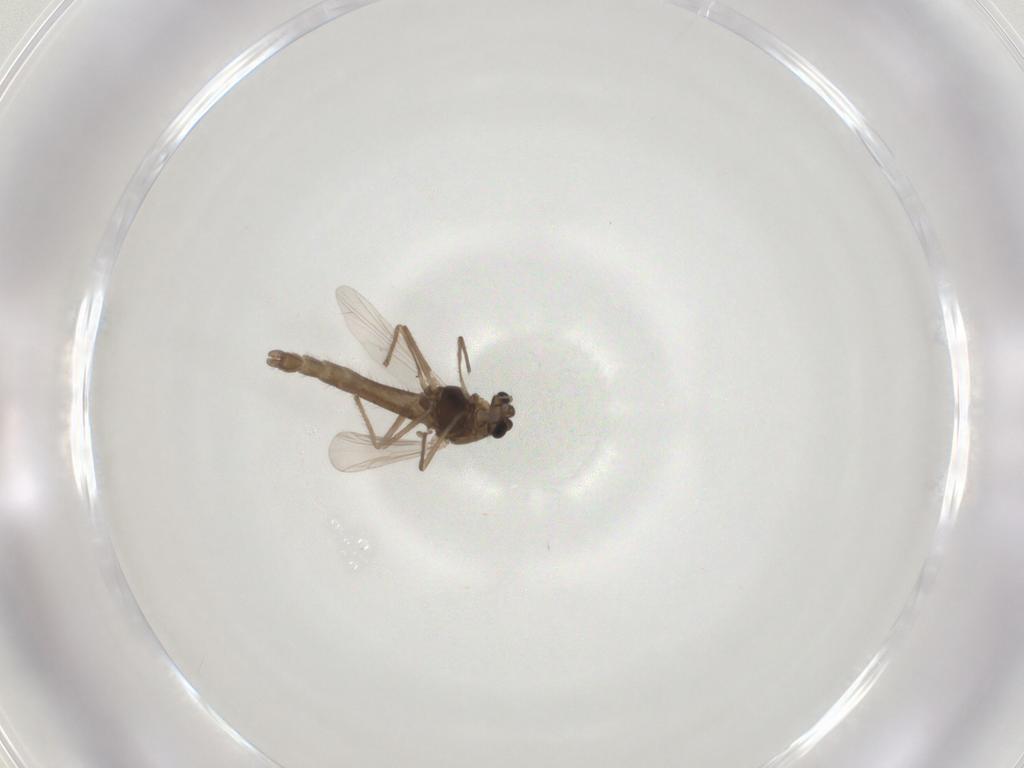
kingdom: Animalia
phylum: Arthropoda
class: Insecta
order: Diptera
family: Chironomidae
